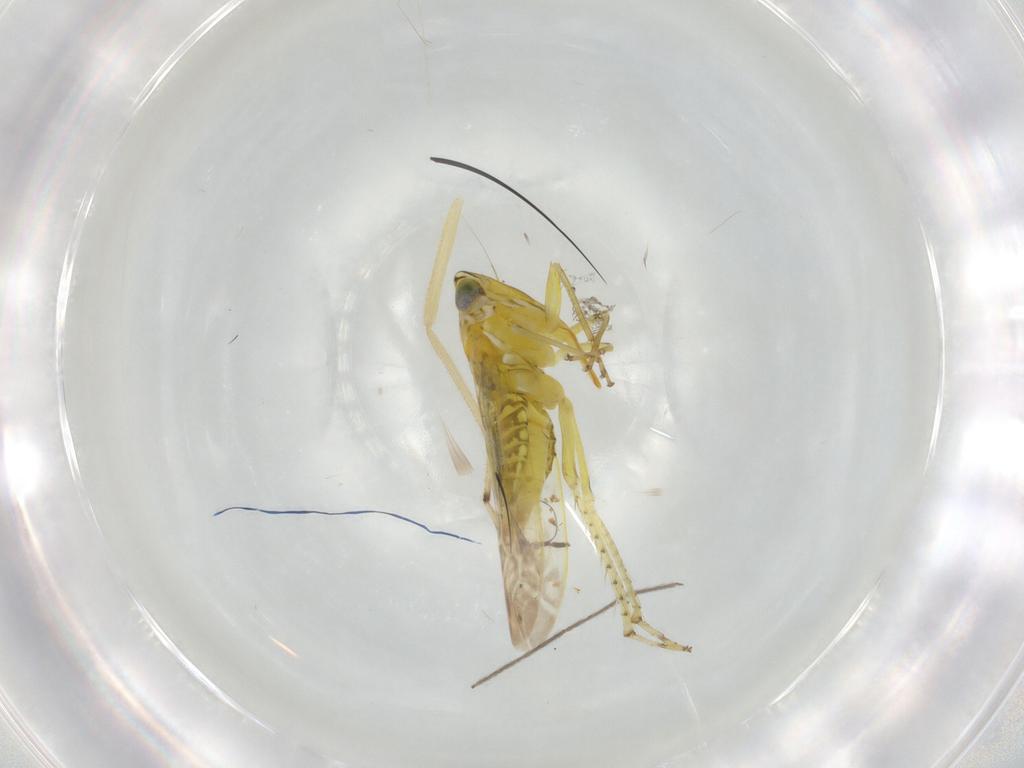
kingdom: Animalia
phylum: Arthropoda
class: Insecta
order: Hemiptera
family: Cicadellidae
